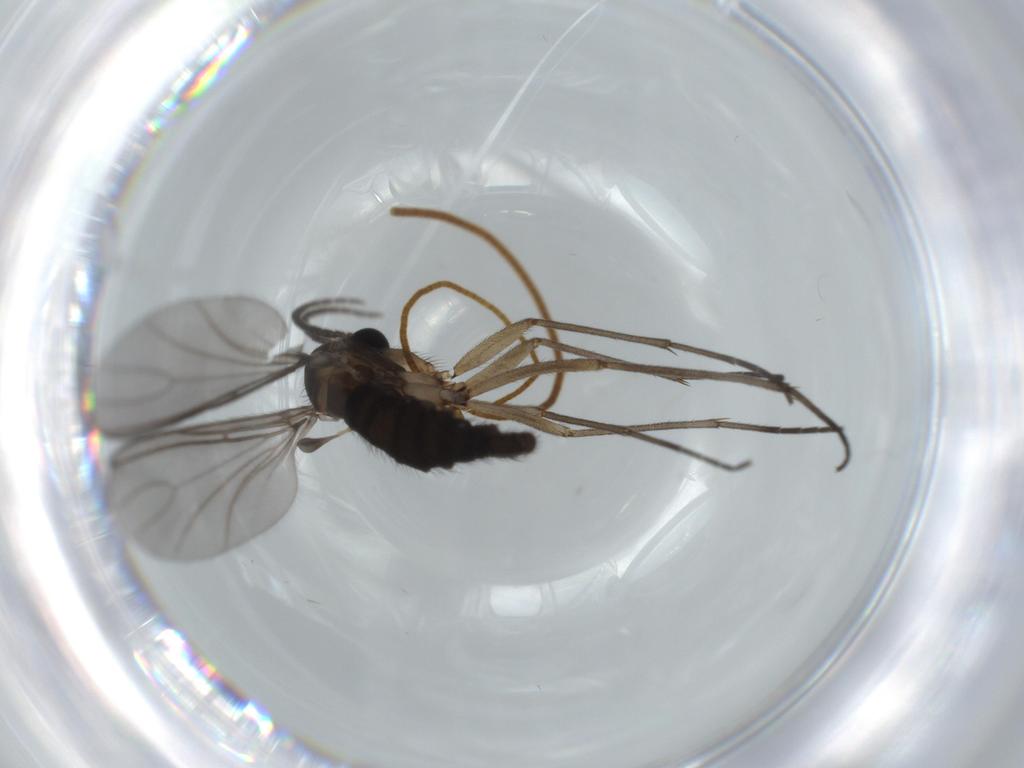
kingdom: Animalia
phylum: Arthropoda
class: Insecta
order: Diptera
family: Sciaridae
